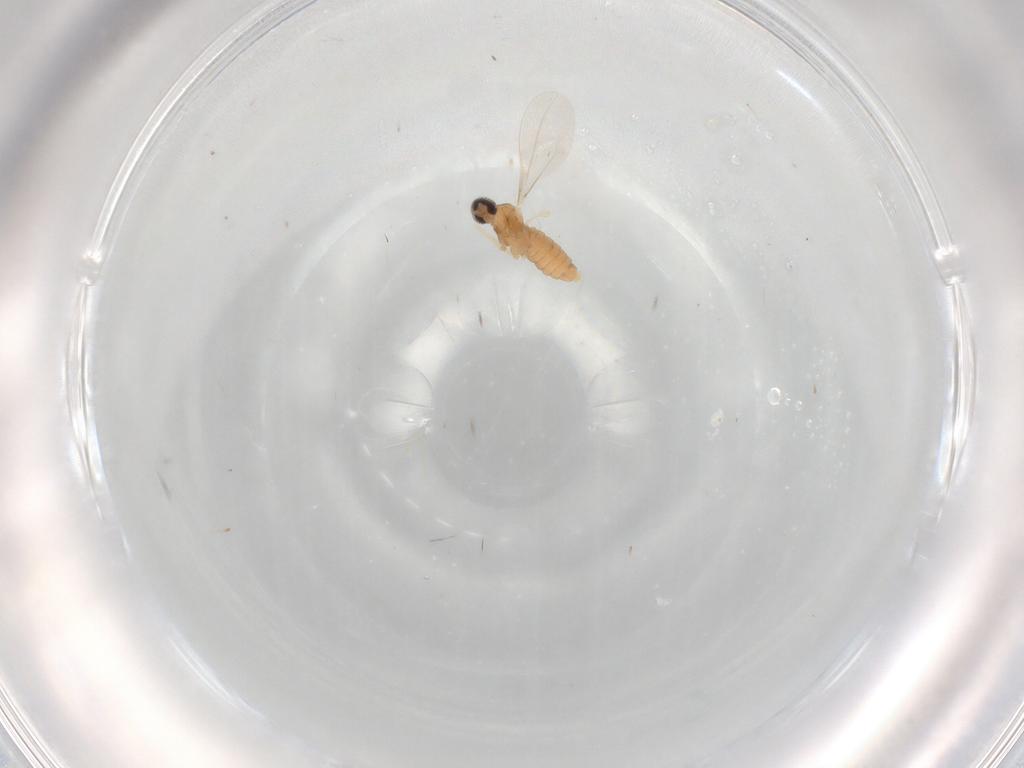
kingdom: Animalia
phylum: Arthropoda
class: Insecta
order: Diptera
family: Cecidomyiidae
